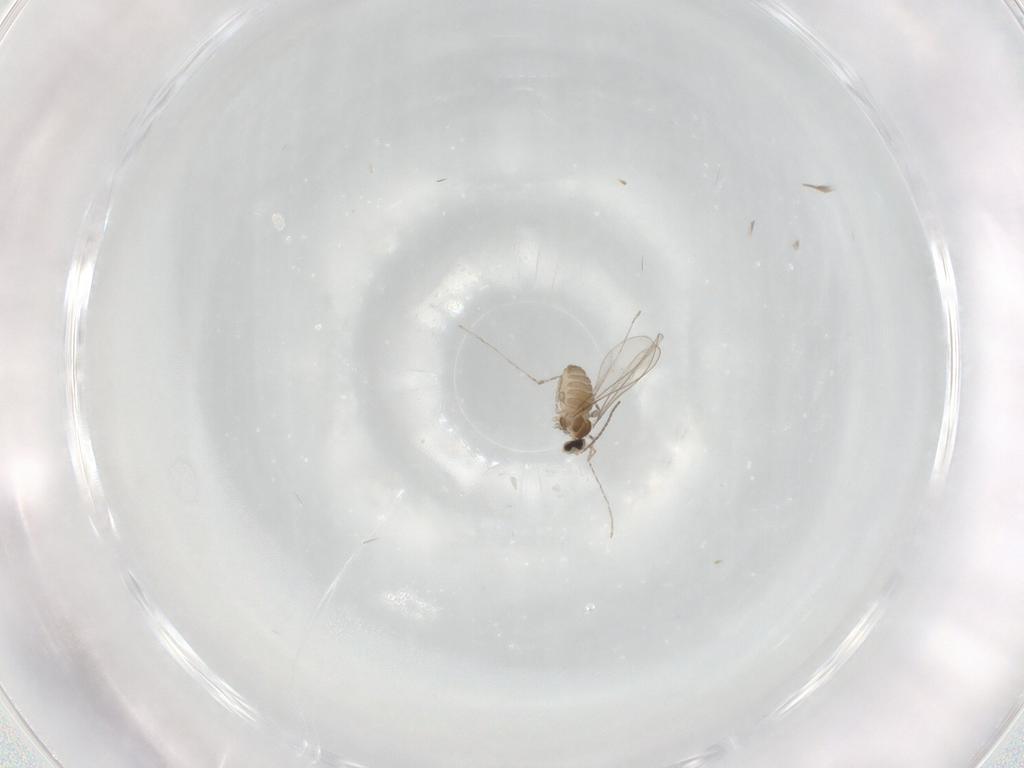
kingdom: Animalia
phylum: Arthropoda
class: Insecta
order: Diptera
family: Cecidomyiidae
